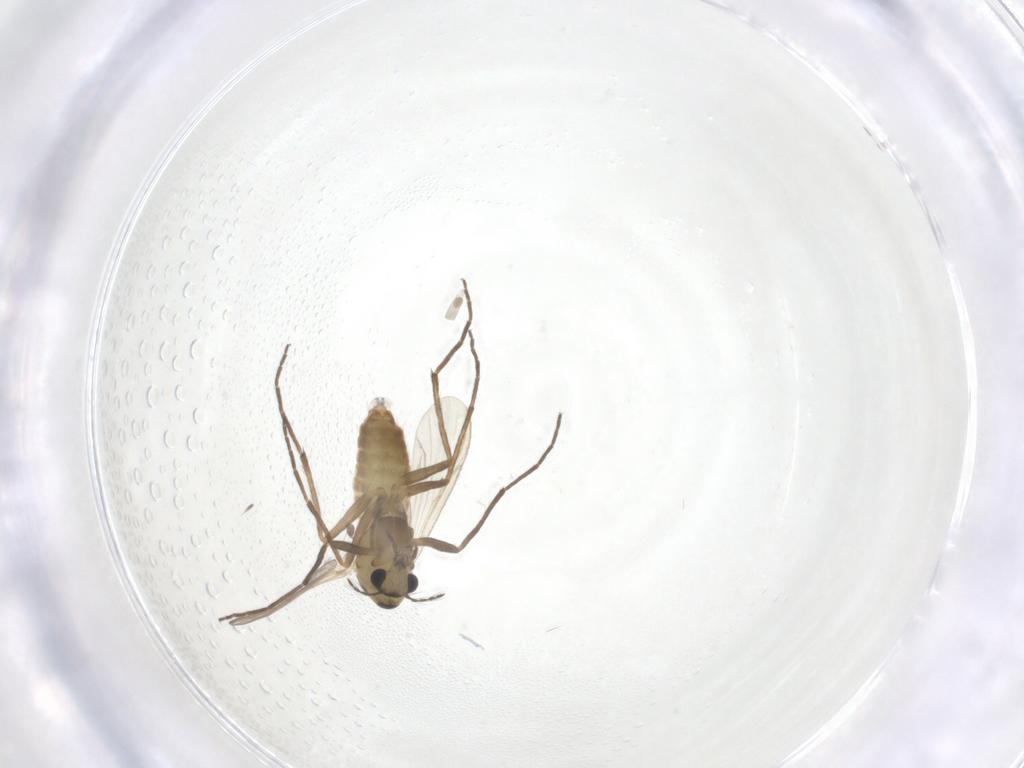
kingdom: Animalia
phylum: Arthropoda
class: Insecta
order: Diptera
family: Chironomidae
